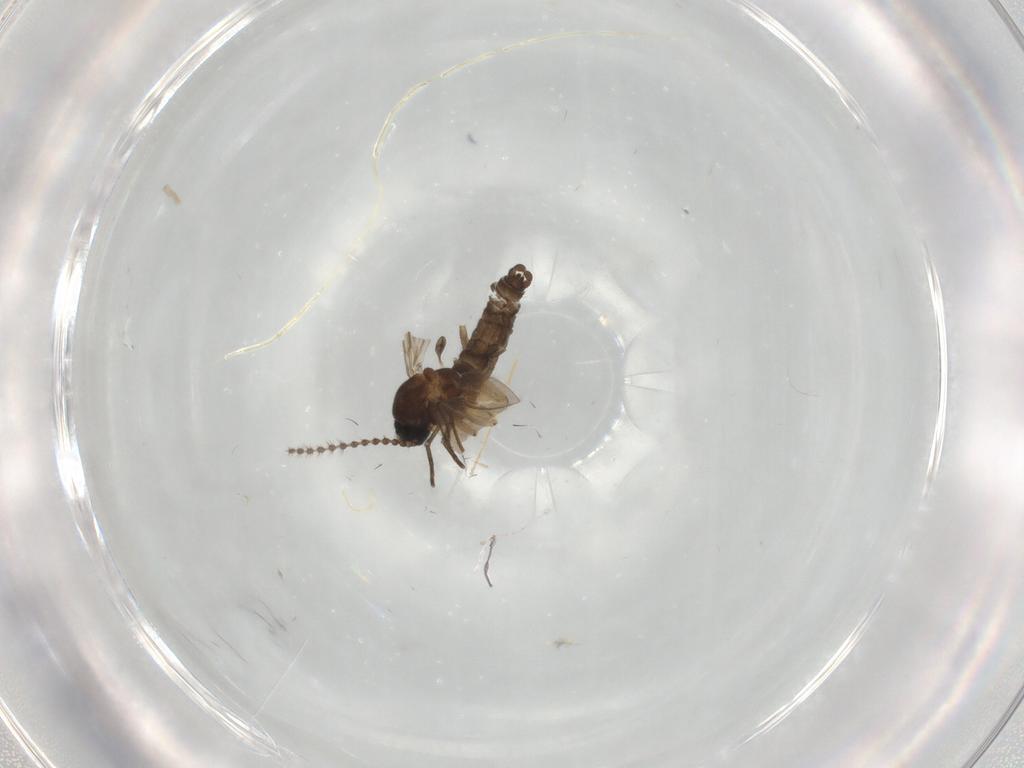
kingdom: Animalia
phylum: Arthropoda
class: Insecta
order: Diptera
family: Sciaridae
